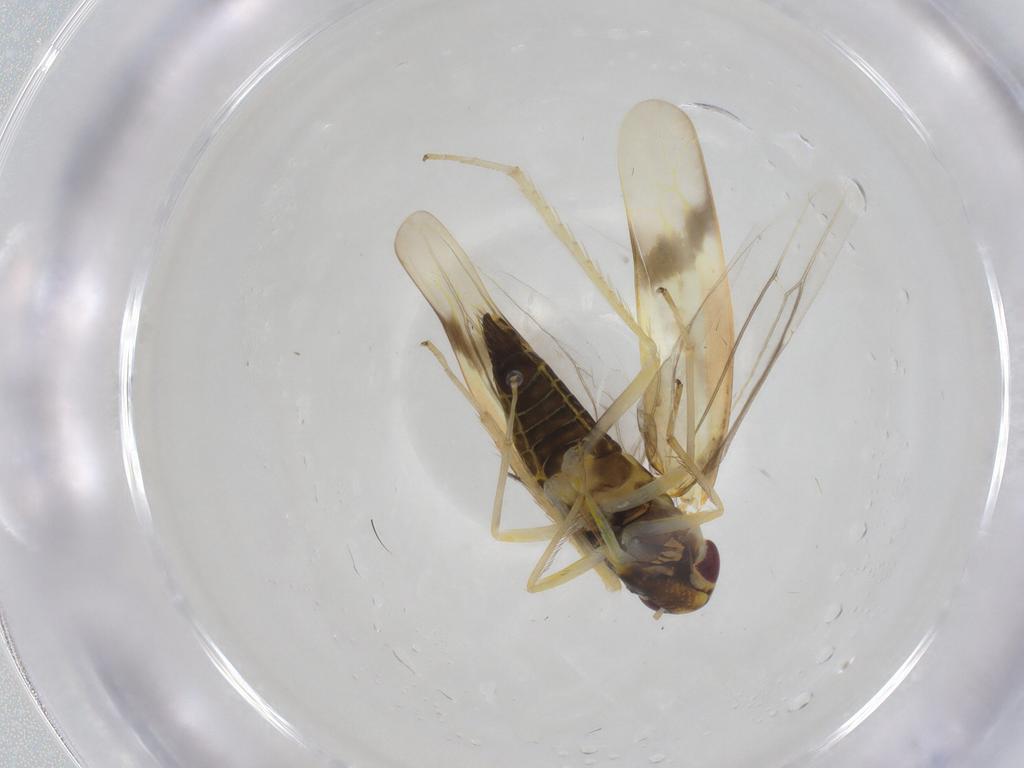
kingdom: Animalia
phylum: Arthropoda
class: Insecta
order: Hemiptera
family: Cicadellidae
